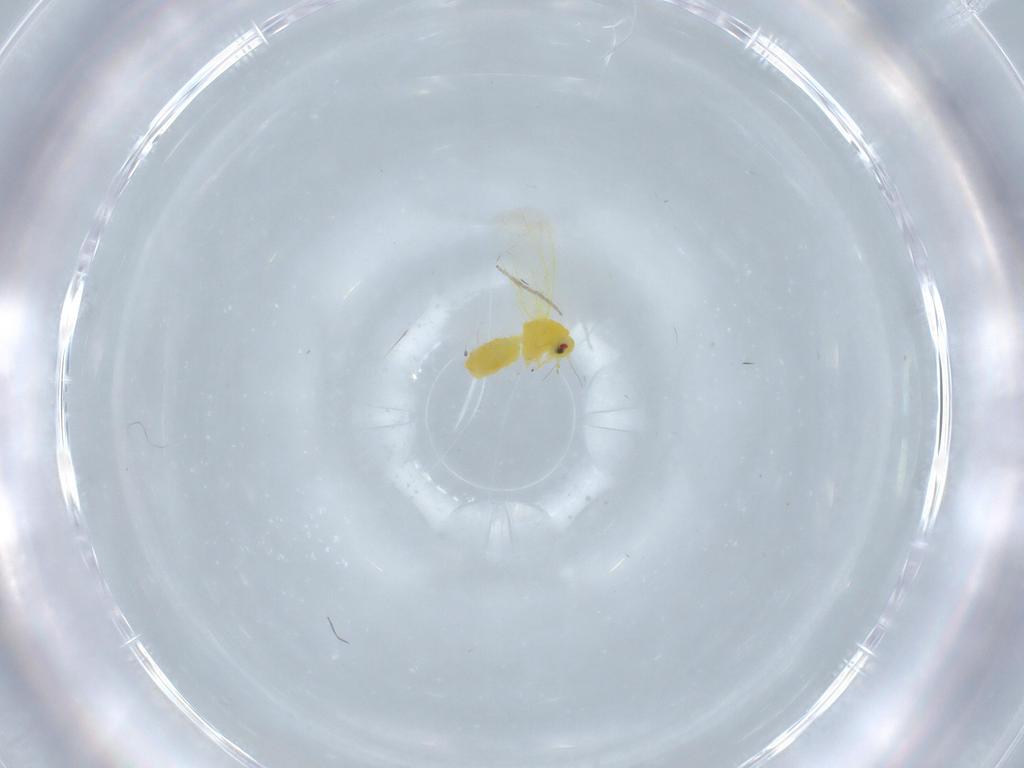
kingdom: Animalia
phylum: Arthropoda
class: Insecta
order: Hemiptera
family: Aleyrodidae
